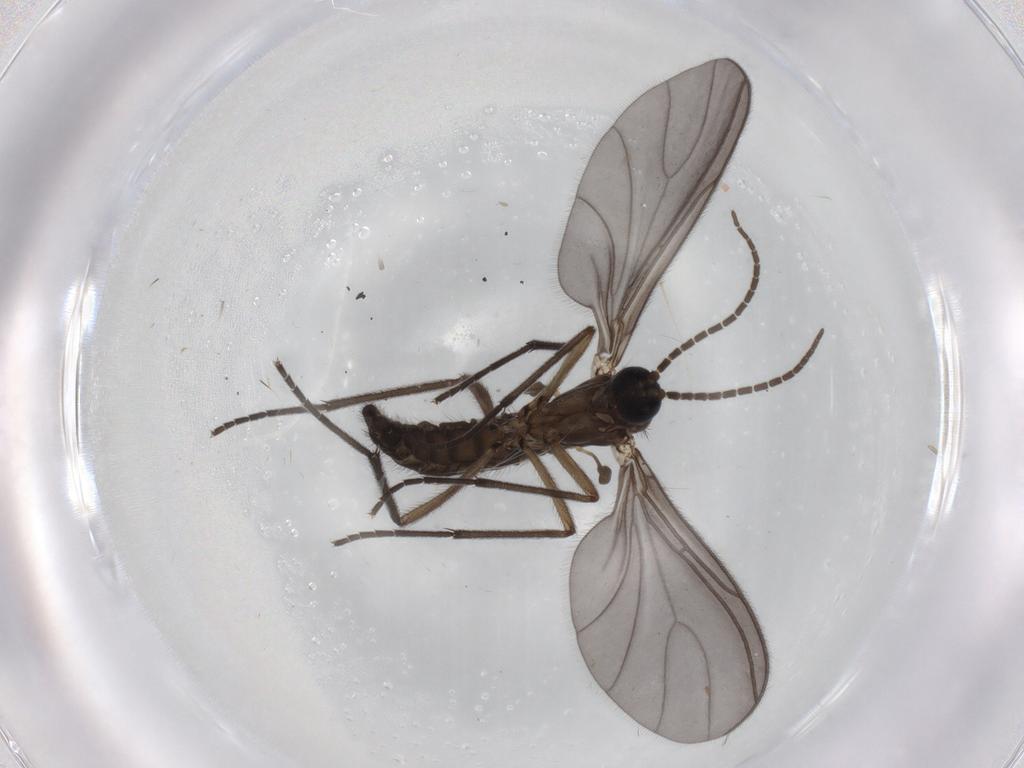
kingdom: Animalia
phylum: Arthropoda
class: Insecta
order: Diptera
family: Sciaridae
